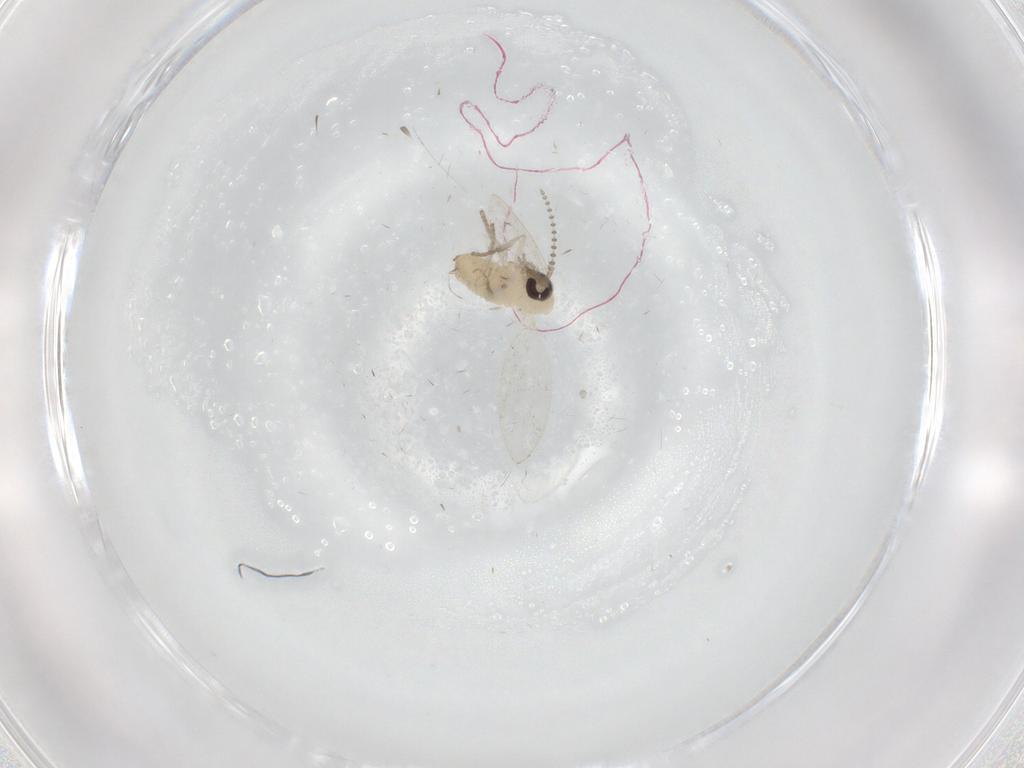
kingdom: Animalia
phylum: Arthropoda
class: Insecta
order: Diptera
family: Psychodidae
